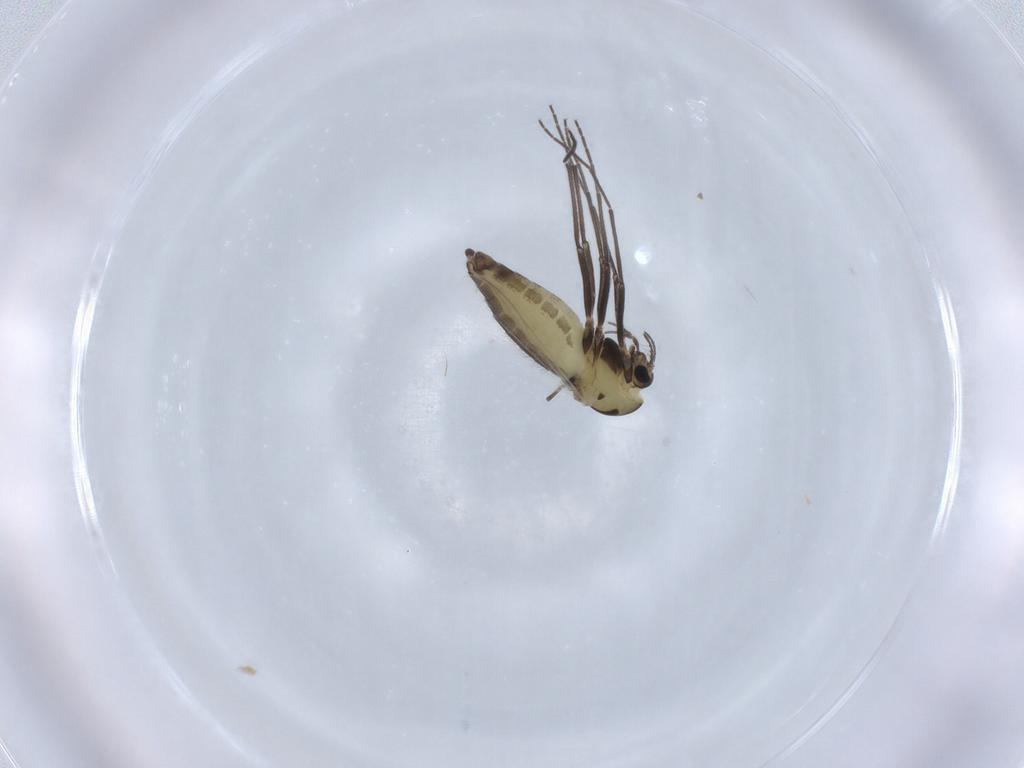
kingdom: Animalia
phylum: Arthropoda
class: Insecta
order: Diptera
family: Chironomidae
